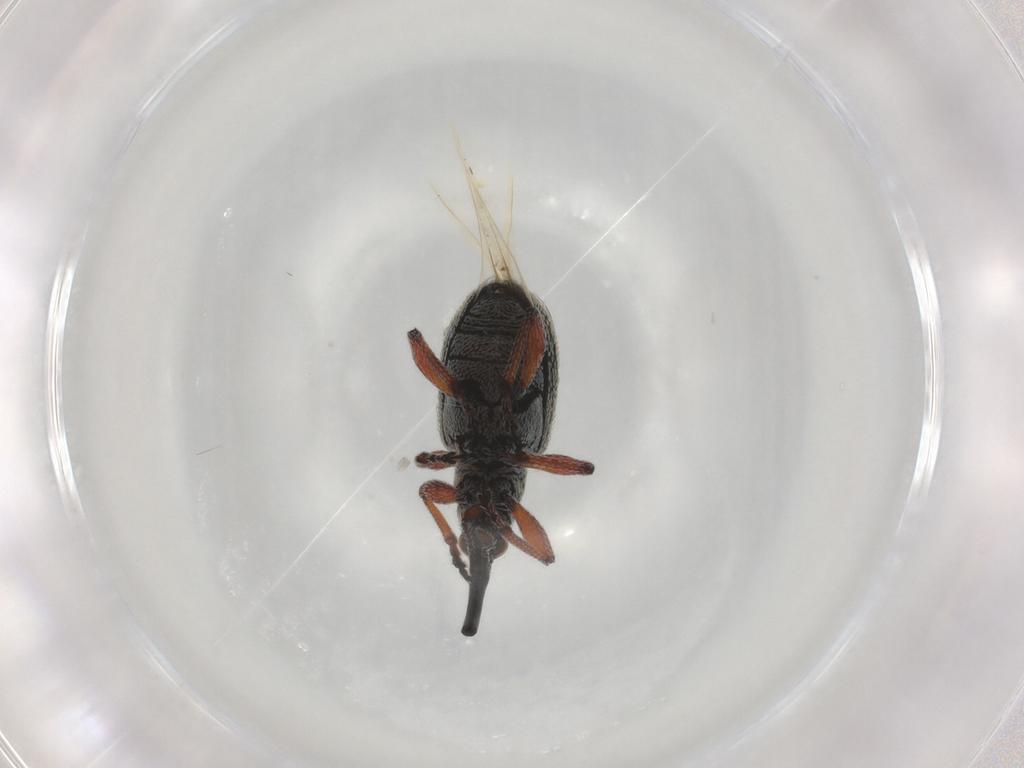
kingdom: Animalia
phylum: Arthropoda
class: Insecta
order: Coleoptera
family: Brentidae
